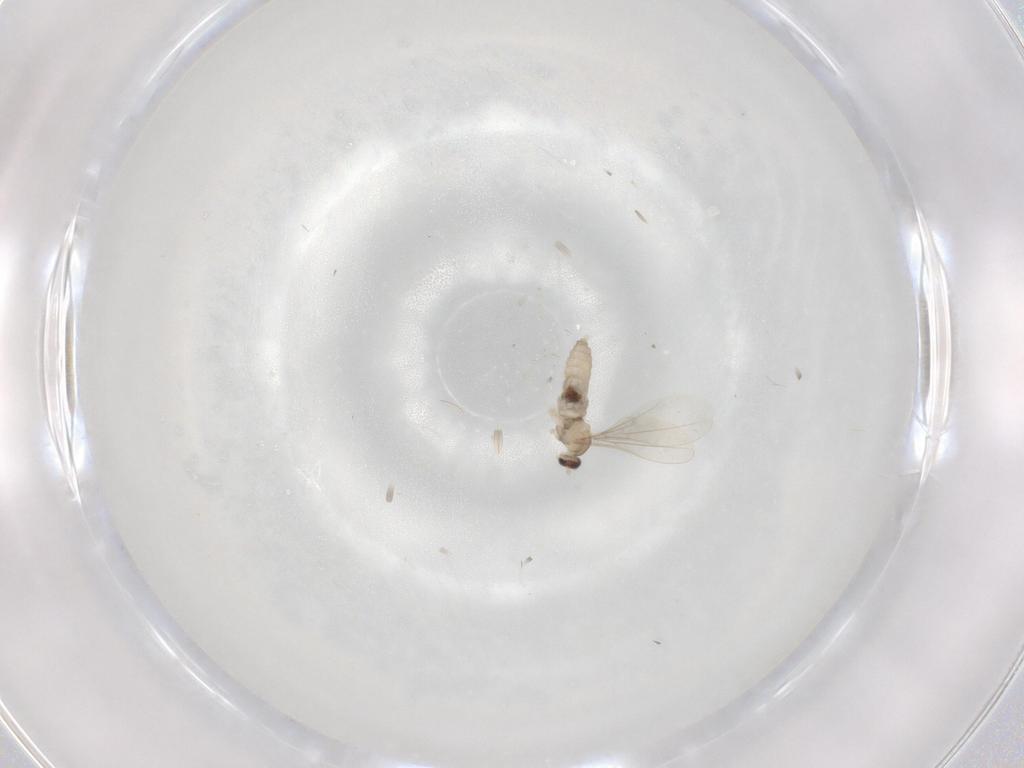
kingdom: Animalia
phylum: Arthropoda
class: Insecta
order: Diptera
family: Cecidomyiidae
